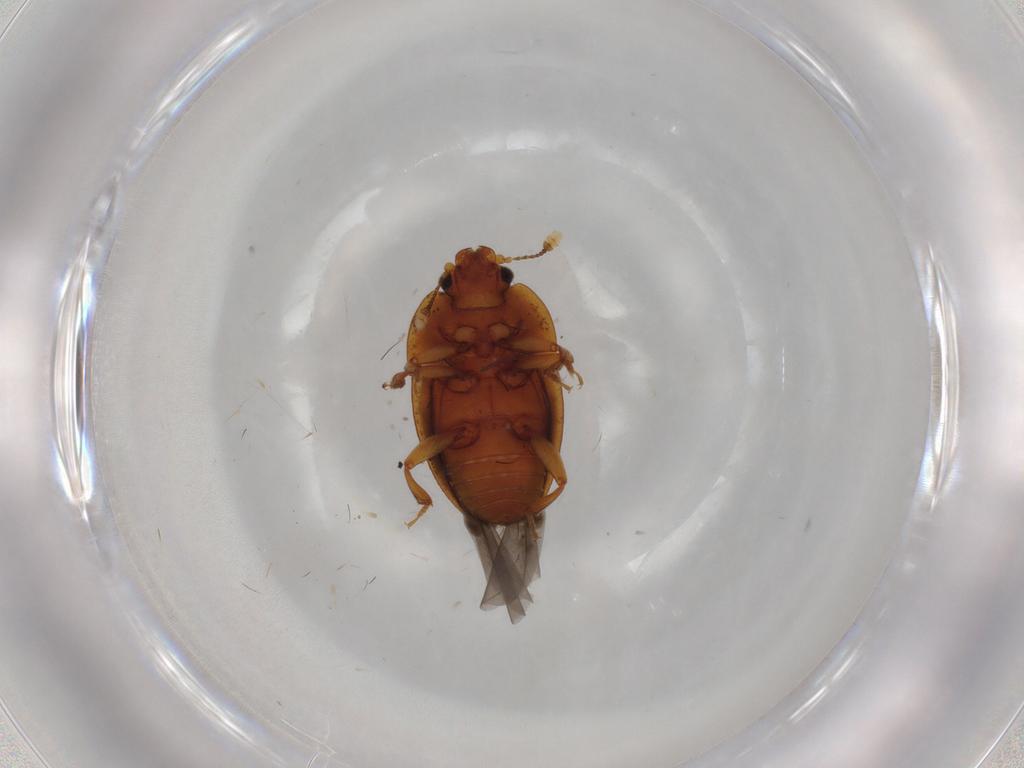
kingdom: Animalia
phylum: Arthropoda
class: Insecta
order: Coleoptera
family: Nitidulidae
